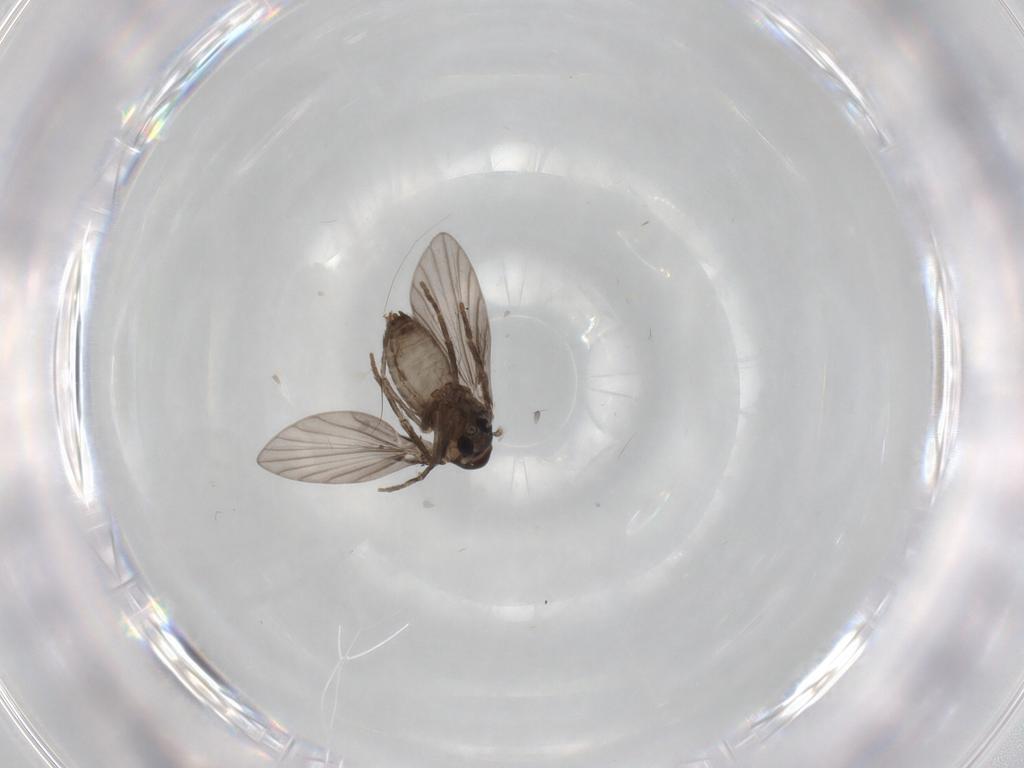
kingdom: Animalia
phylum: Arthropoda
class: Insecta
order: Diptera
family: Psychodidae
